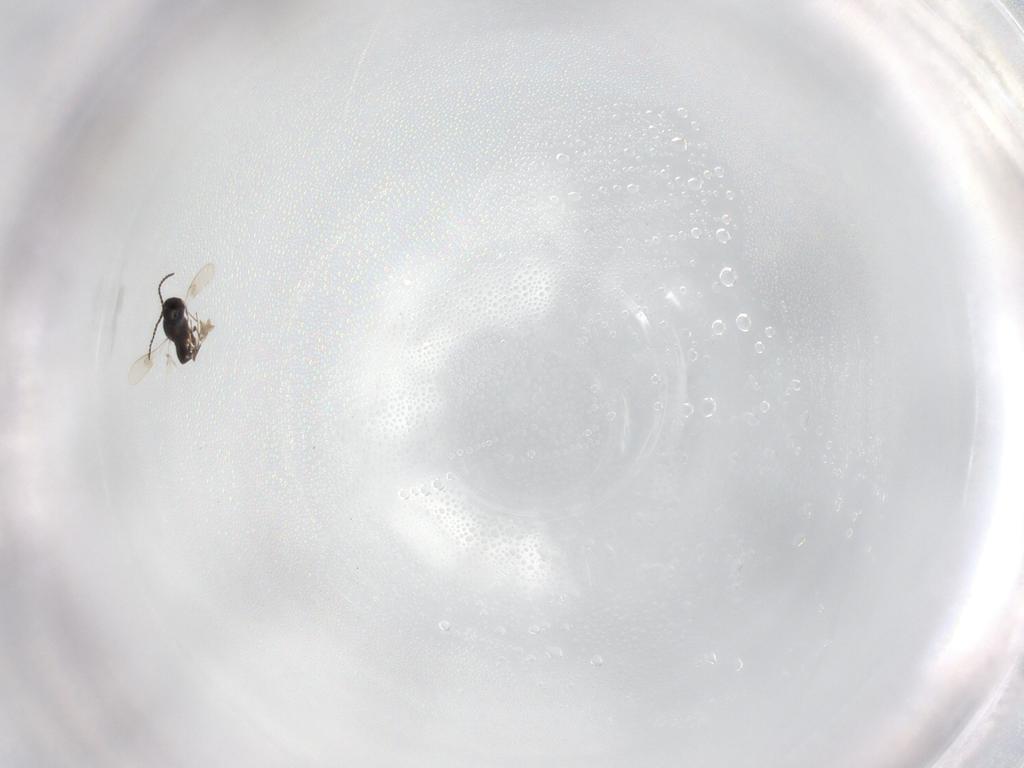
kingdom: Animalia
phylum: Arthropoda
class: Insecta
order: Hymenoptera
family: Scelionidae
